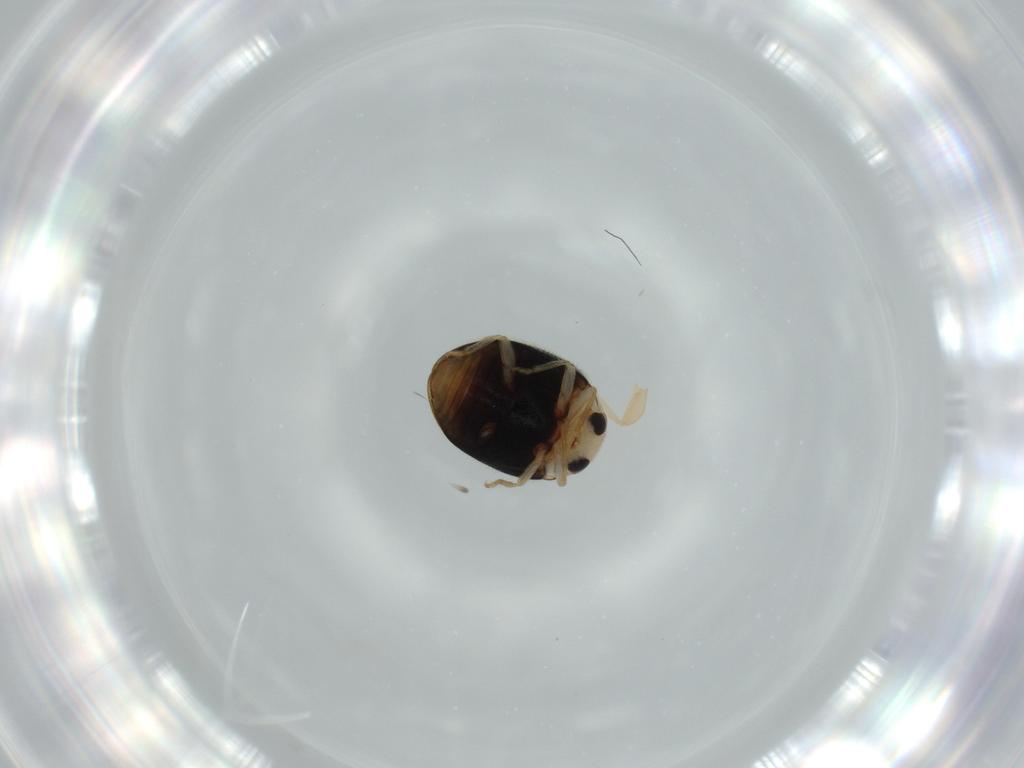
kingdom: Animalia
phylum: Arthropoda
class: Insecta
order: Coleoptera
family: Coccinellidae
